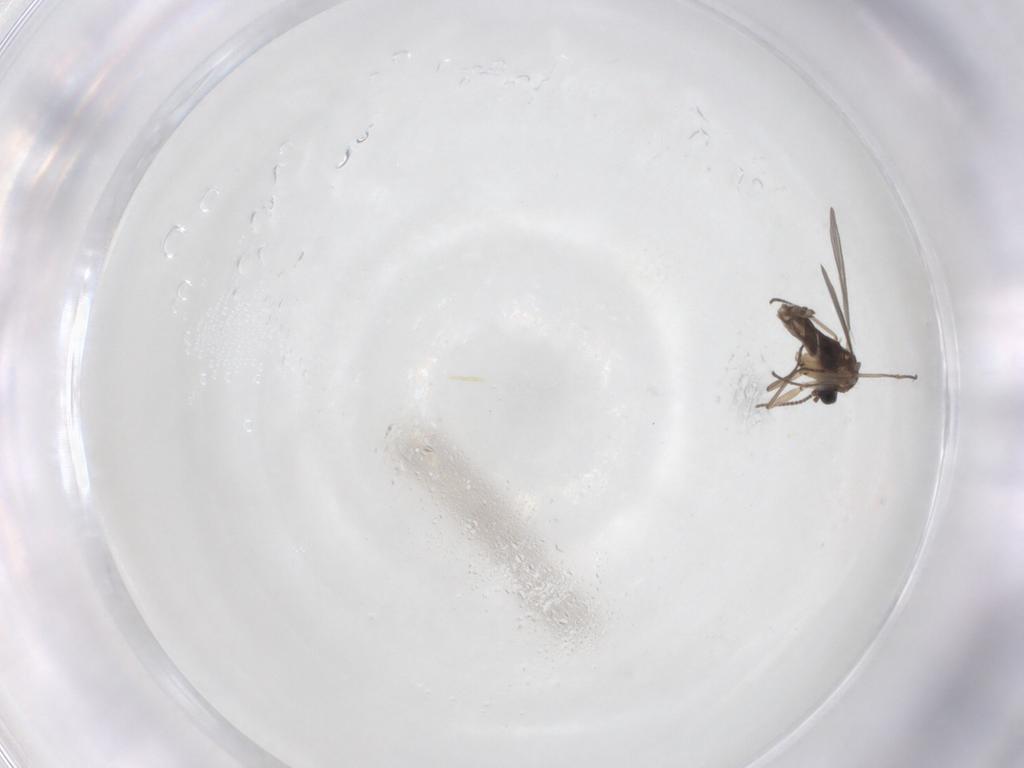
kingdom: Animalia
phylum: Arthropoda
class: Insecta
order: Diptera
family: Sciaridae
